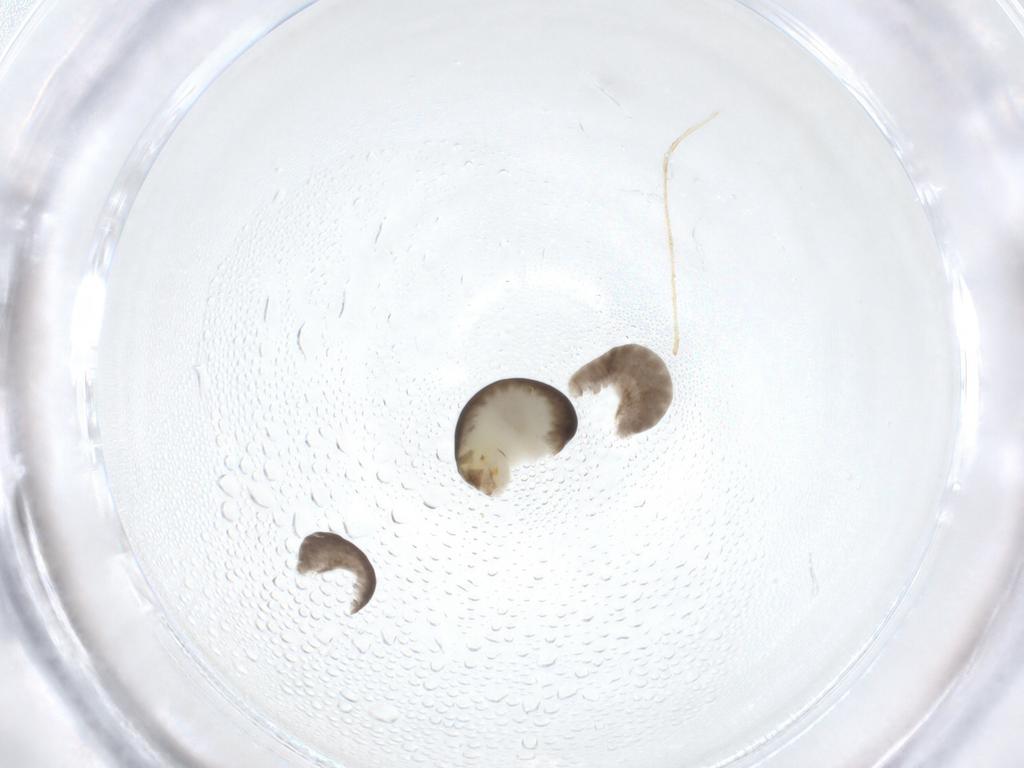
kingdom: Animalia
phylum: Arthropoda
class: Insecta
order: Hymenoptera
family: Dryinidae
